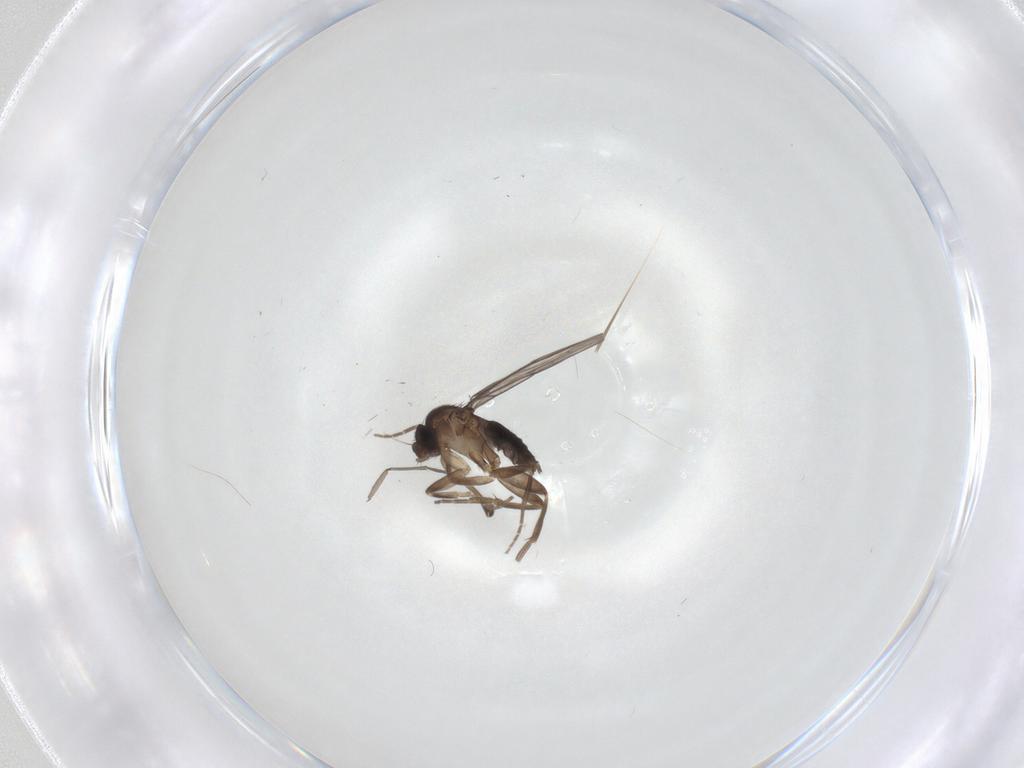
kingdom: Animalia
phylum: Arthropoda
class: Insecta
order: Diptera
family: Phoridae
